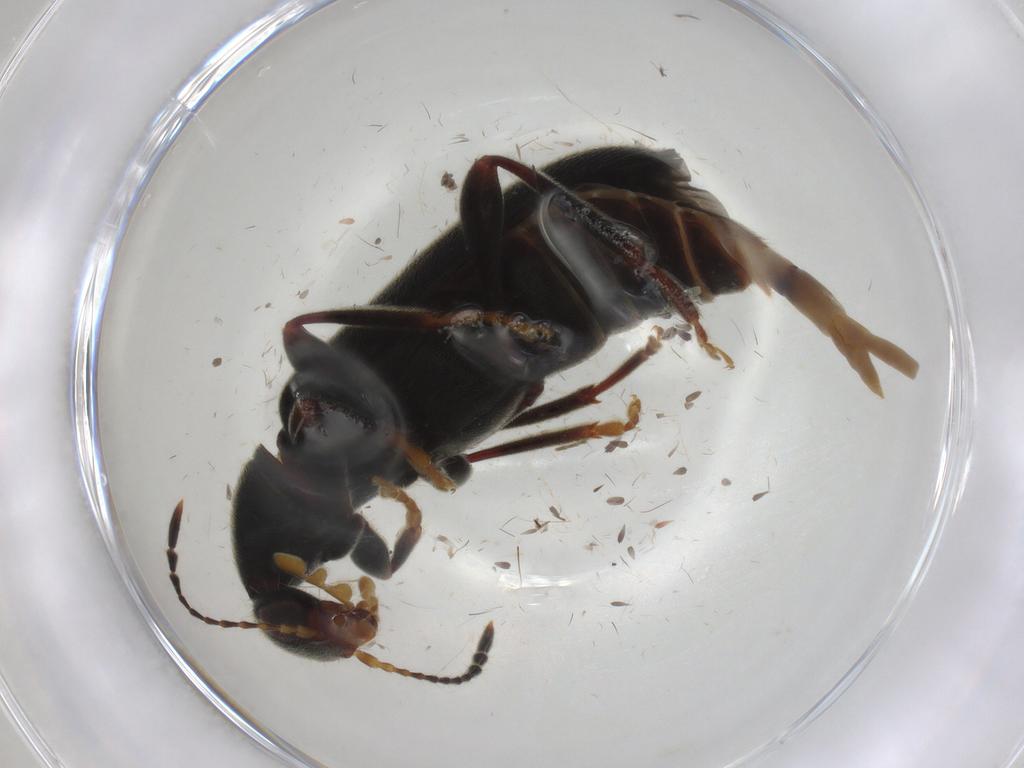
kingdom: Animalia
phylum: Arthropoda
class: Insecta
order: Coleoptera
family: Anthicidae
